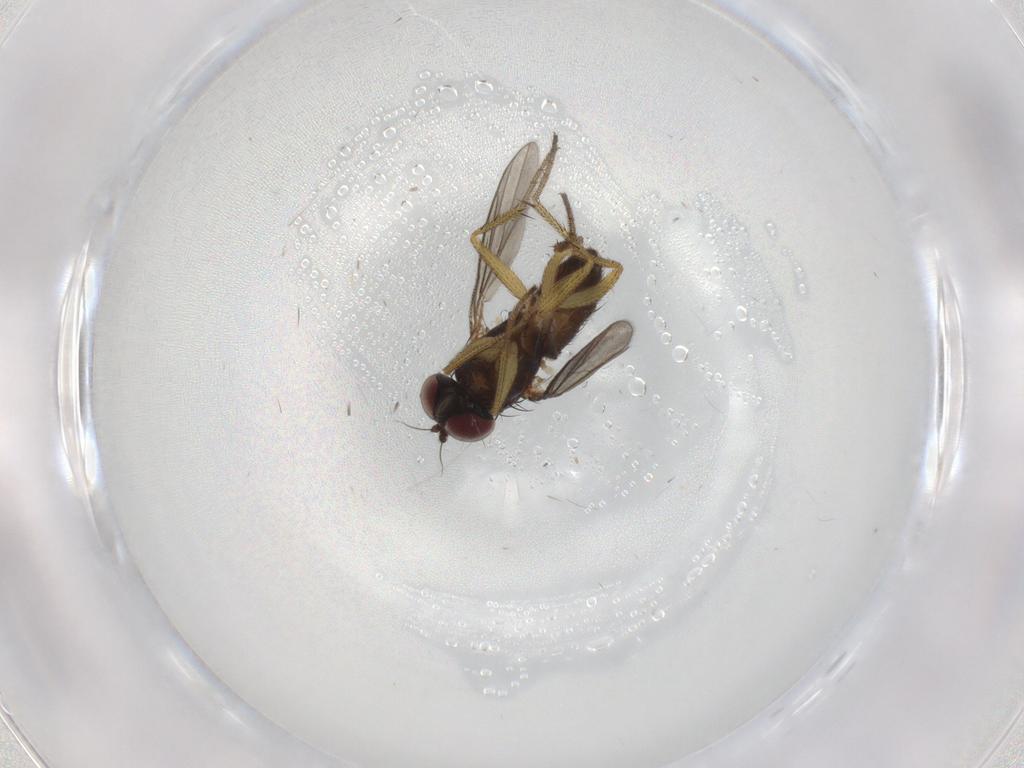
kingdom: Animalia
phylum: Arthropoda
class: Insecta
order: Diptera
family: Dolichopodidae
